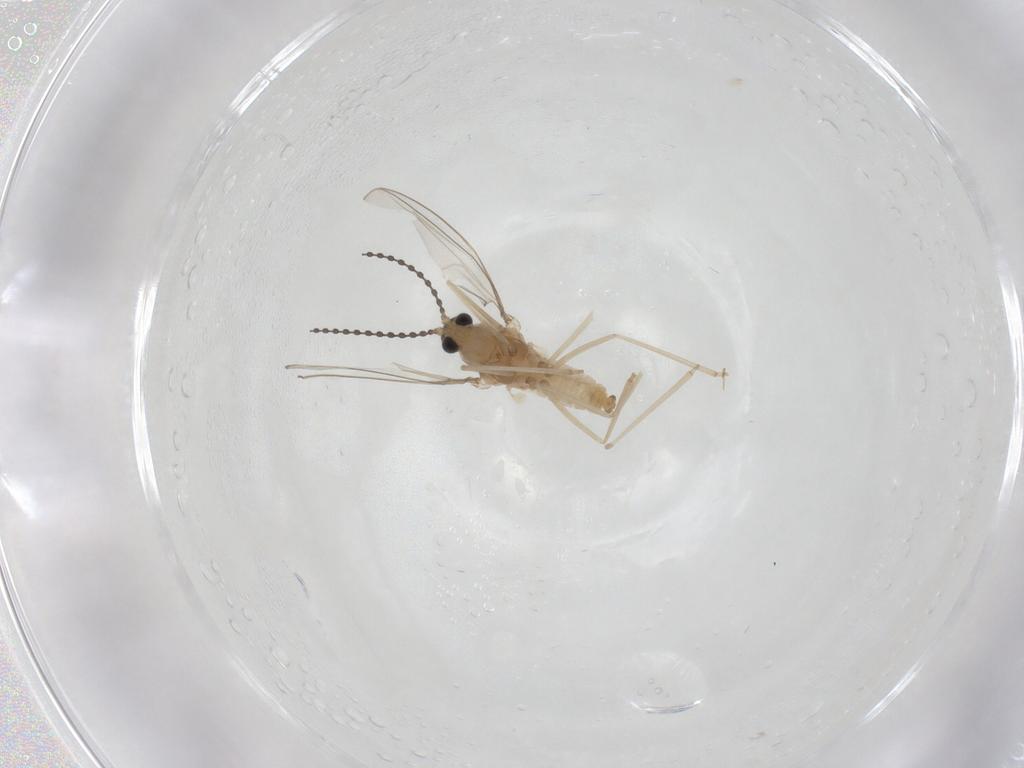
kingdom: Animalia
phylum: Arthropoda
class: Insecta
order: Diptera
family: Cecidomyiidae
